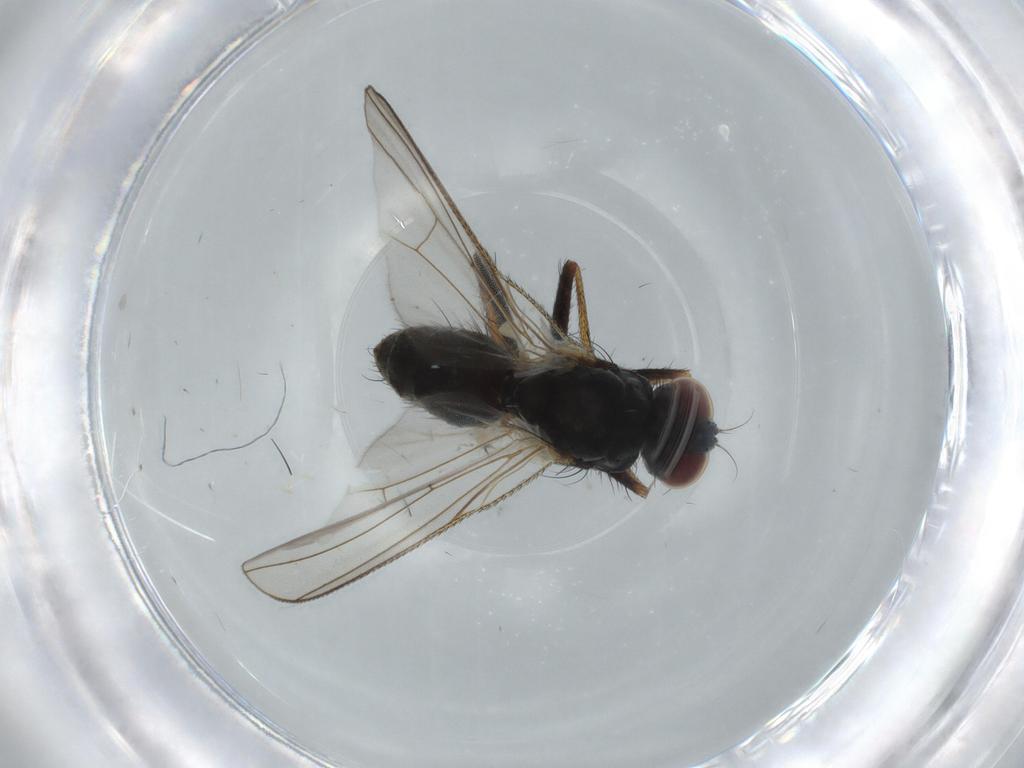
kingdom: Animalia
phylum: Arthropoda
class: Insecta
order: Diptera
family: Muscidae
